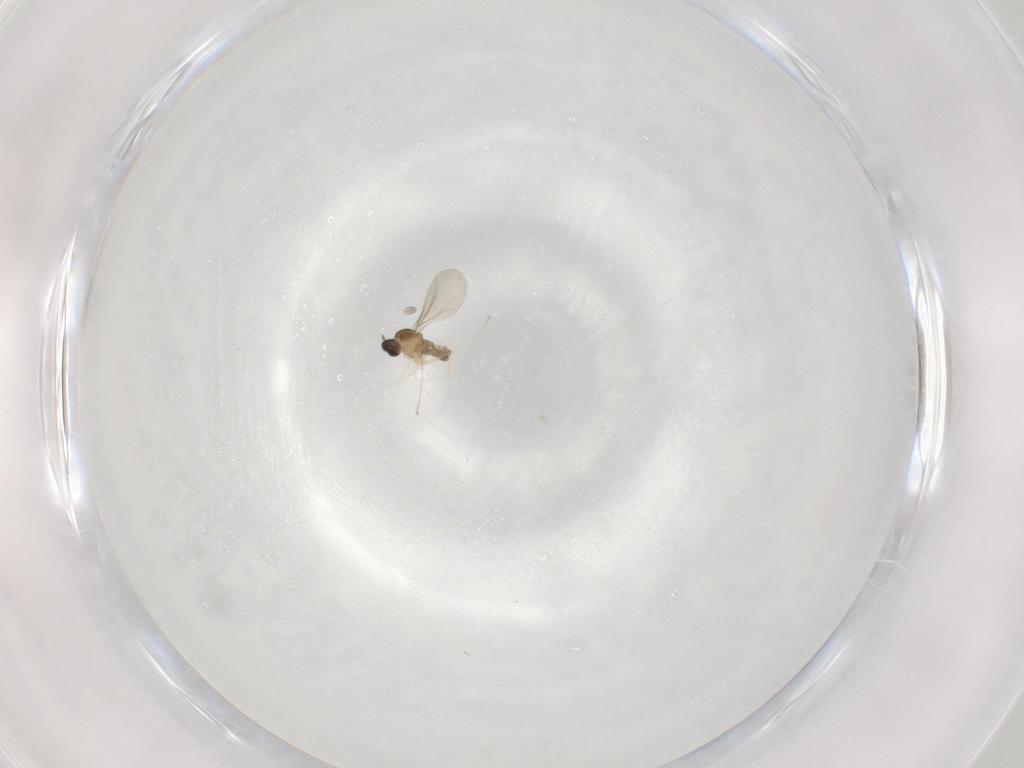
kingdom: Animalia
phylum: Arthropoda
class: Insecta
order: Diptera
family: Cecidomyiidae
